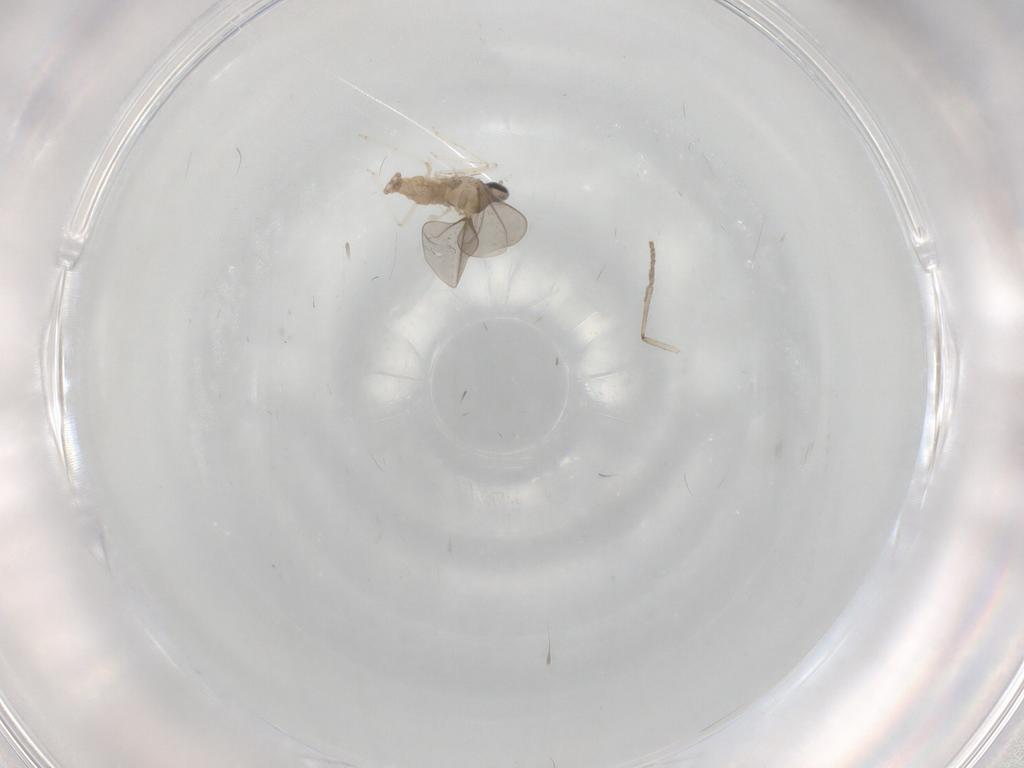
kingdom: Animalia
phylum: Arthropoda
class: Insecta
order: Diptera
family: Cecidomyiidae
